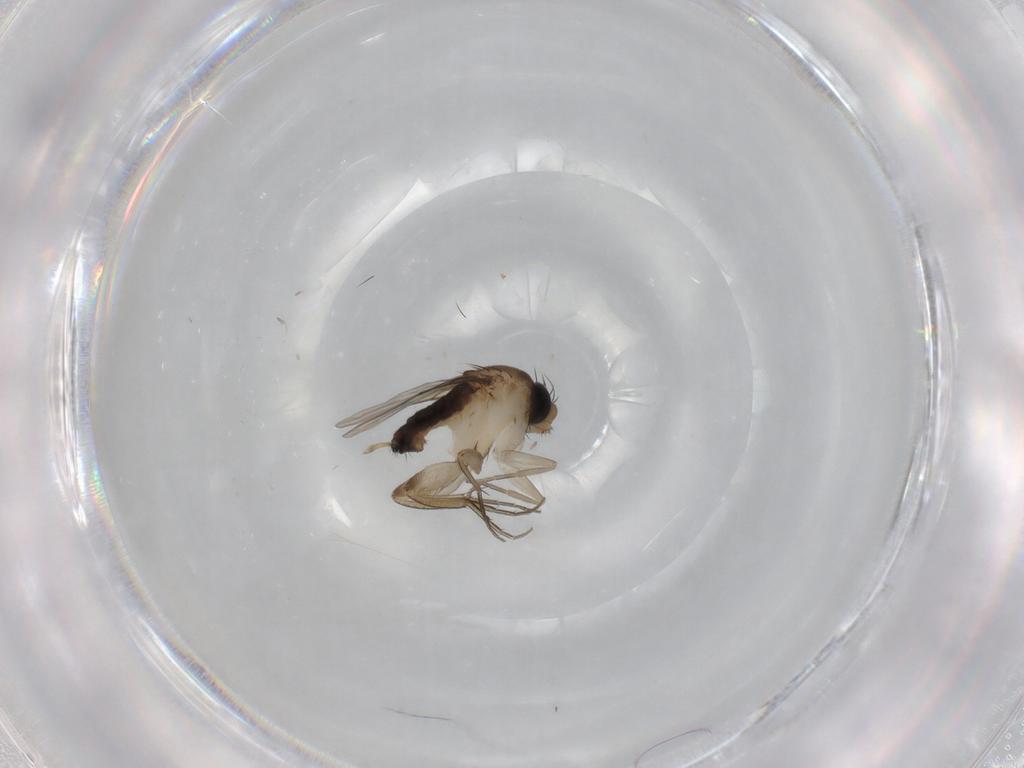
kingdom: Animalia
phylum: Arthropoda
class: Insecta
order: Diptera
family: Phoridae
